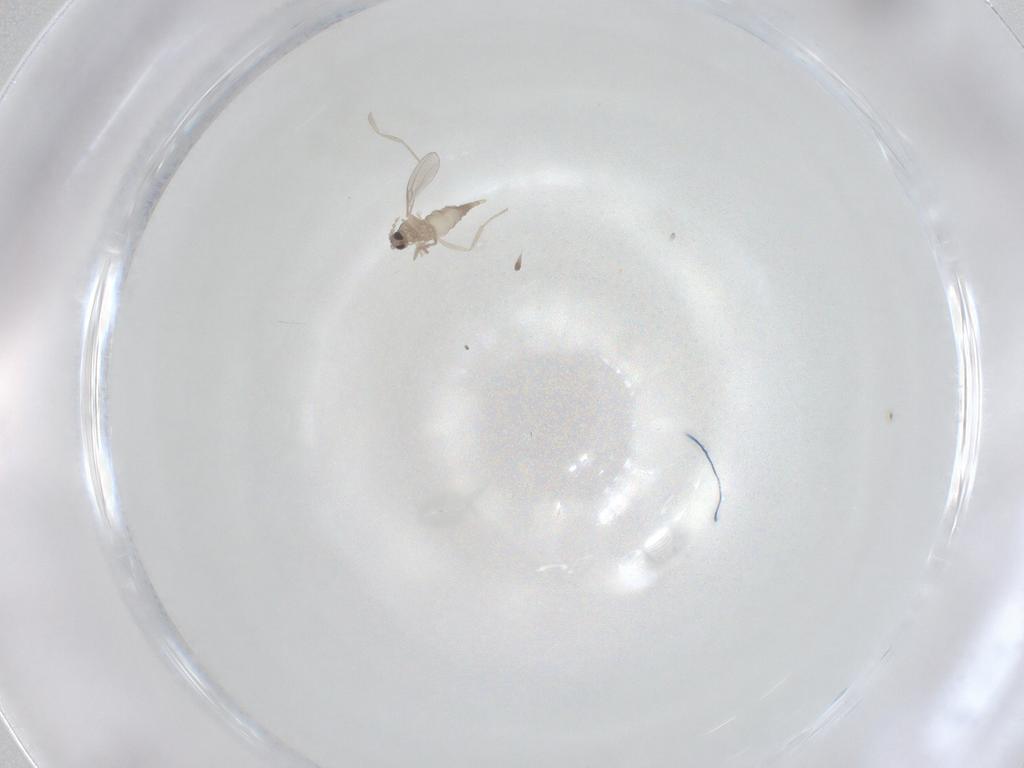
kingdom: Animalia
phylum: Arthropoda
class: Insecta
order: Diptera
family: Cecidomyiidae
